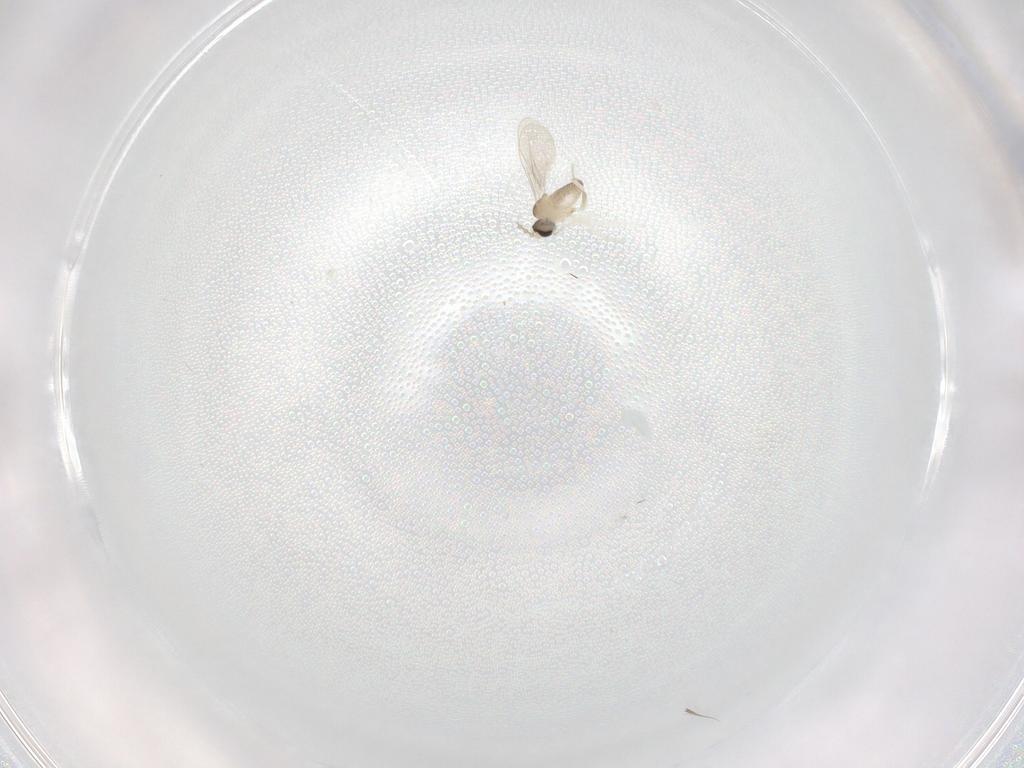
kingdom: Animalia
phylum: Arthropoda
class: Insecta
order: Diptera
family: Cecidomyiidae
